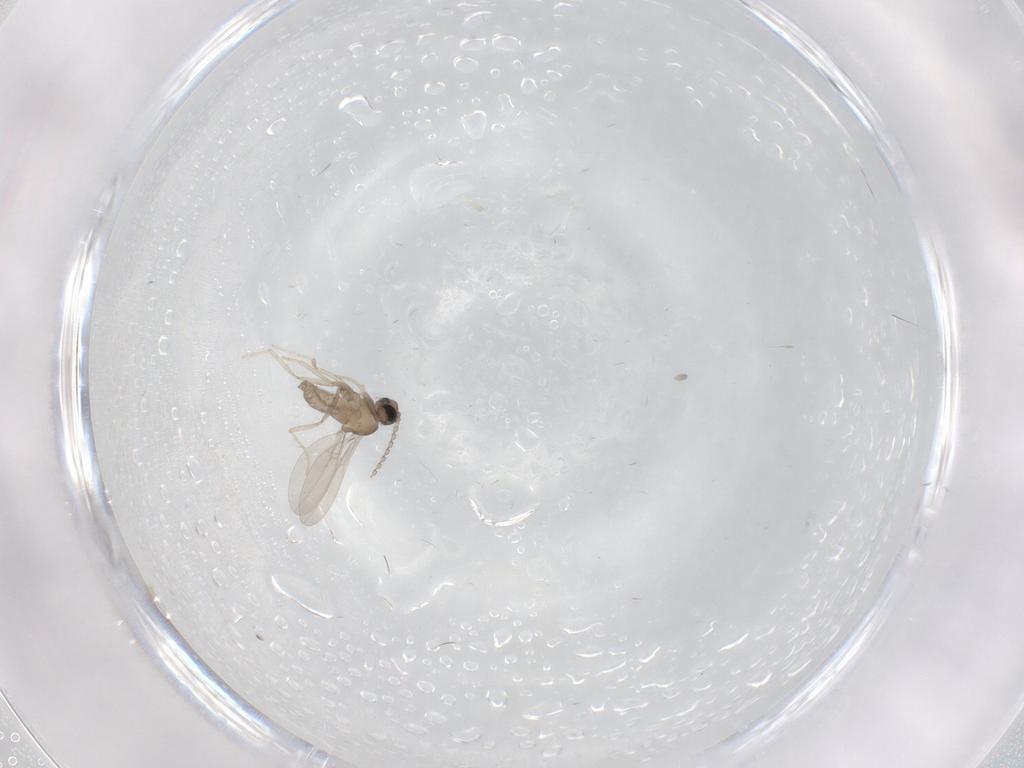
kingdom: Animalia
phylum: Arthropoda
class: Insecta
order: Diptera
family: Cecidomyiidae
